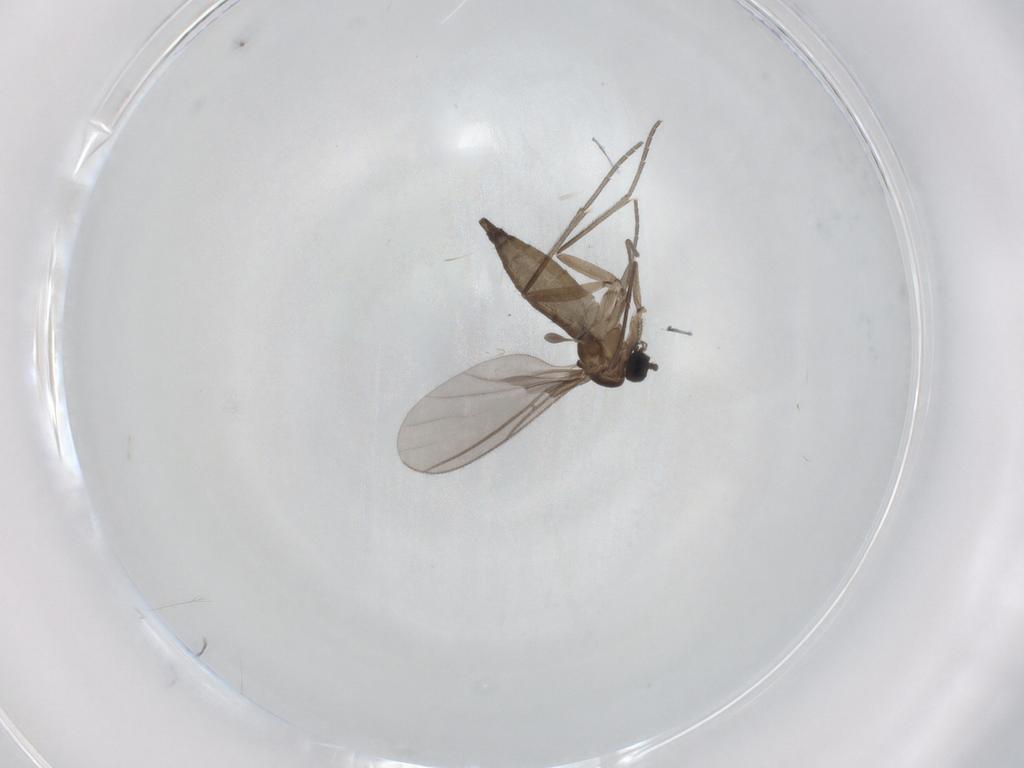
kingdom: Animalia
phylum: Arthropoda
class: Insecta
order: Diptera
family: Sciaridae
